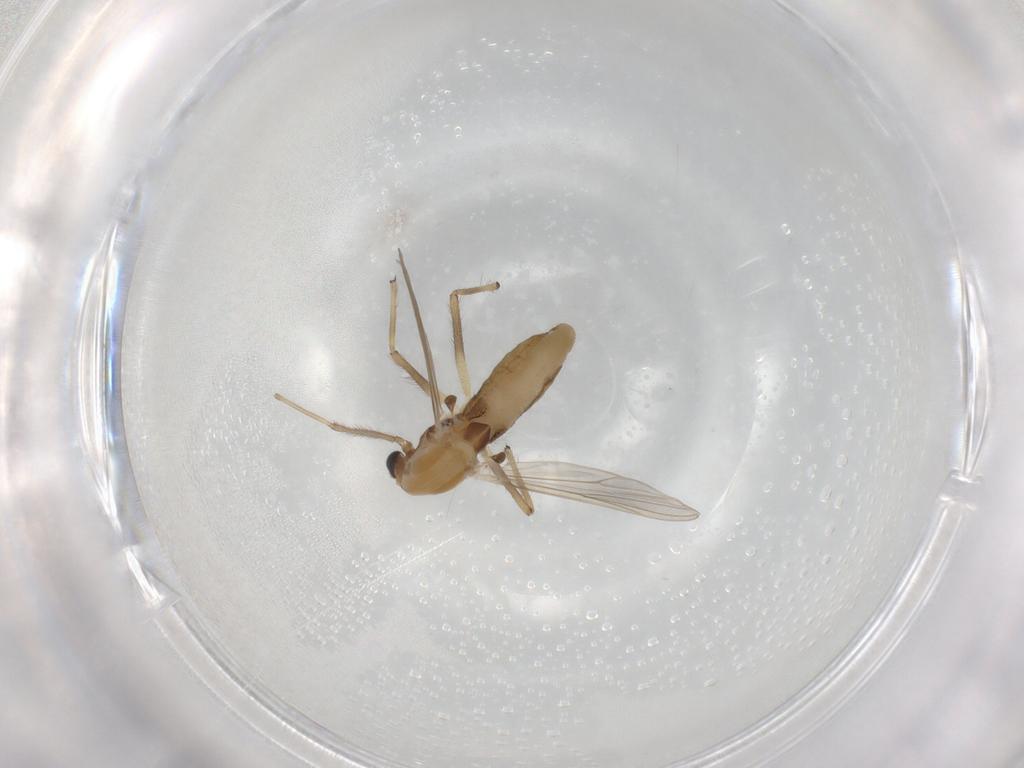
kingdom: Animalia
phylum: Arthropoda
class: Insecta
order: Diptera
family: Chironomidae
